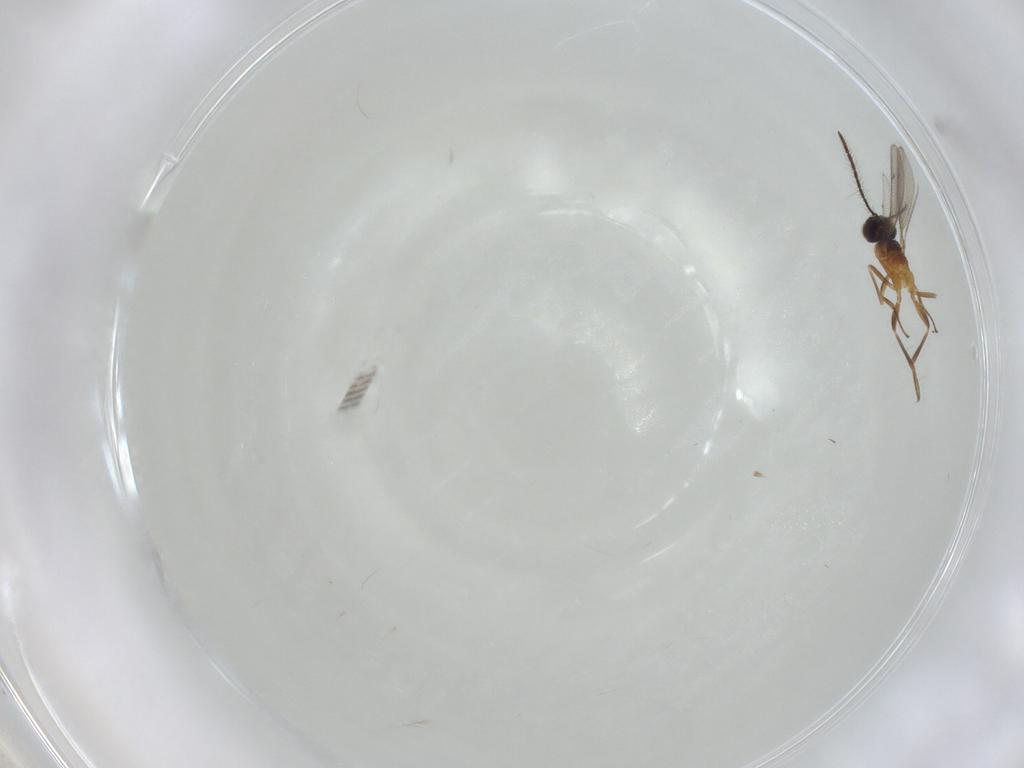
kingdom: Animalia
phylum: Arthropoda
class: Insecta
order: Hymenoptera
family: Eupelmidae
